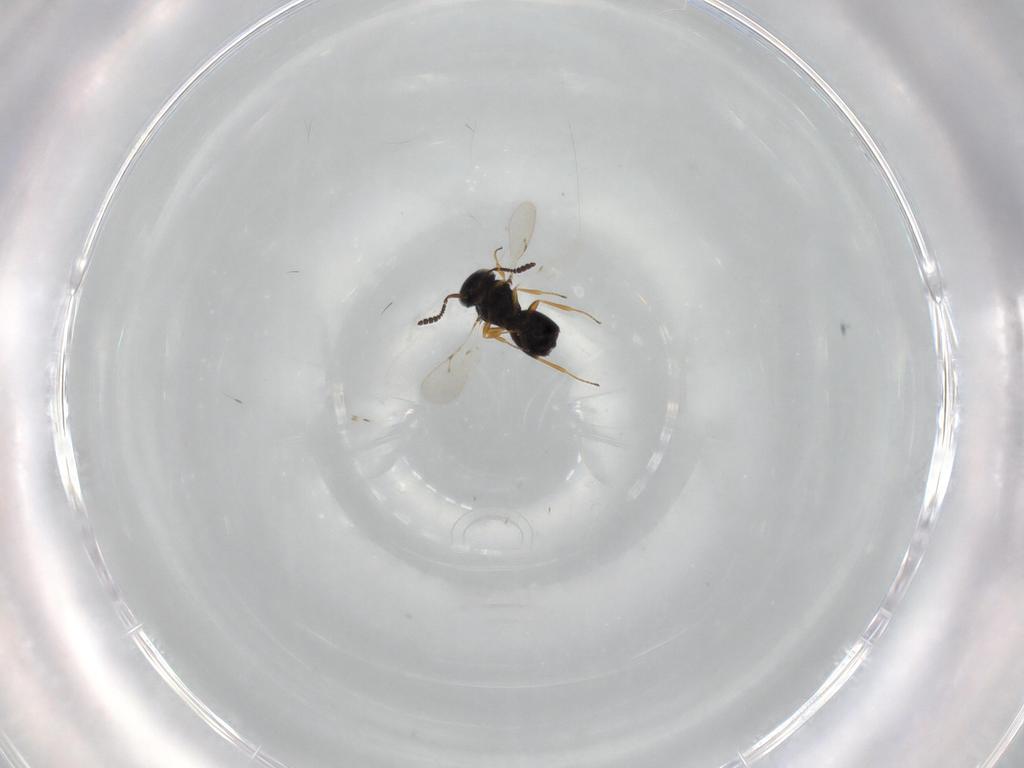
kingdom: Animalia
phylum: Arthropoda
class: Insecta
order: Hymenoptera
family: Scelionidae
